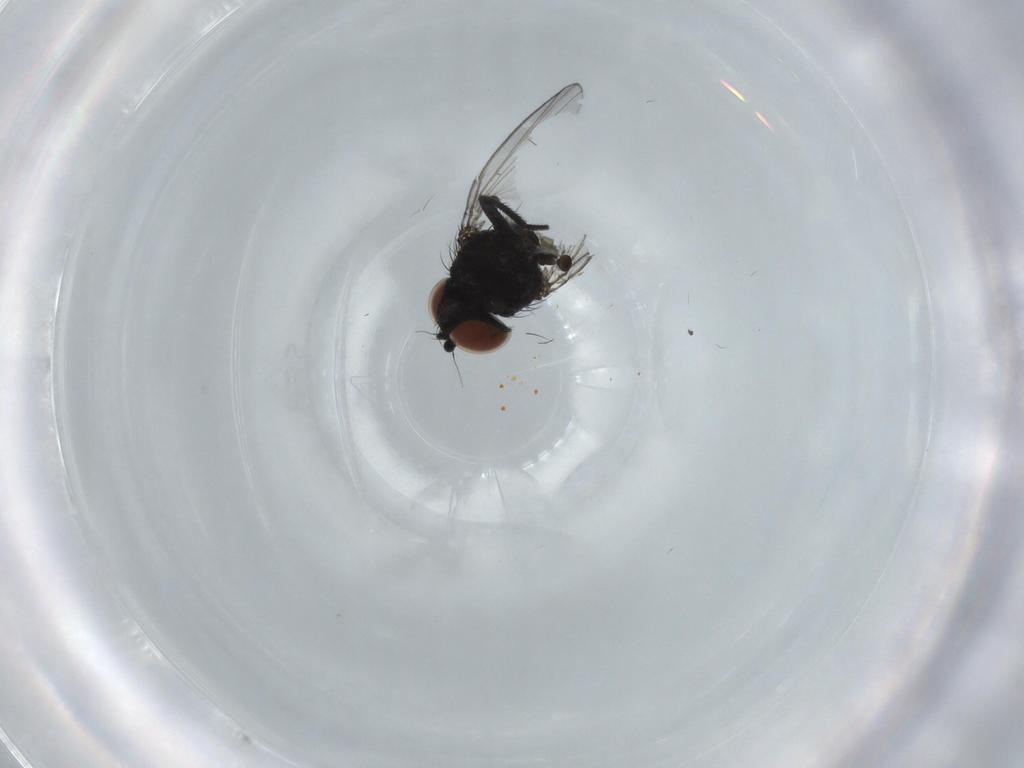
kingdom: Animalia
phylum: Arthropoda
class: Insecta
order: Diptera
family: Milichiidae
